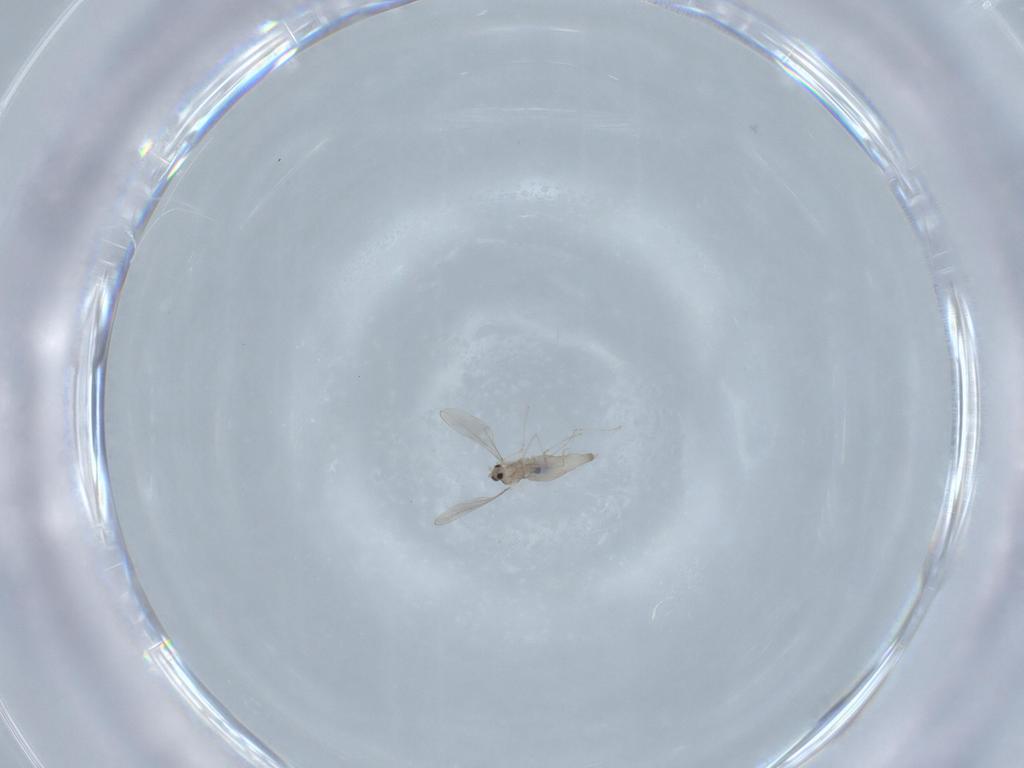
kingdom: Animalia
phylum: Arthropoda
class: Insecta
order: Diptera
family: Cecidomyiidae
